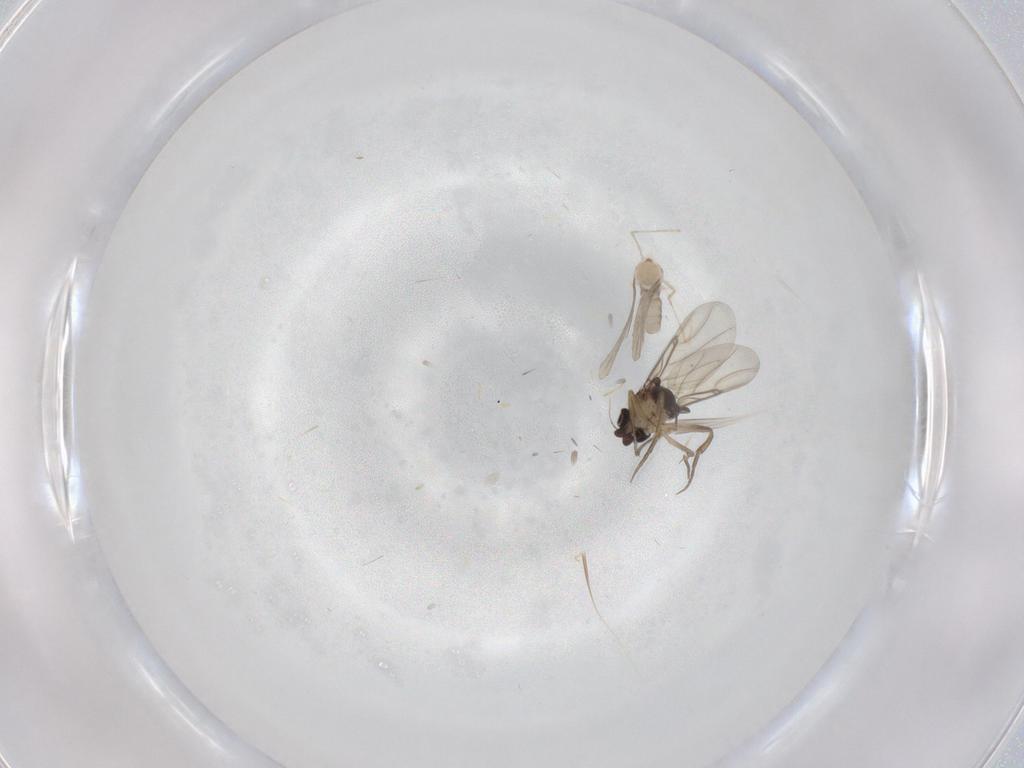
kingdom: Animalia
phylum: Arthropoda
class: Insecta
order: Diptera
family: Phoridae
